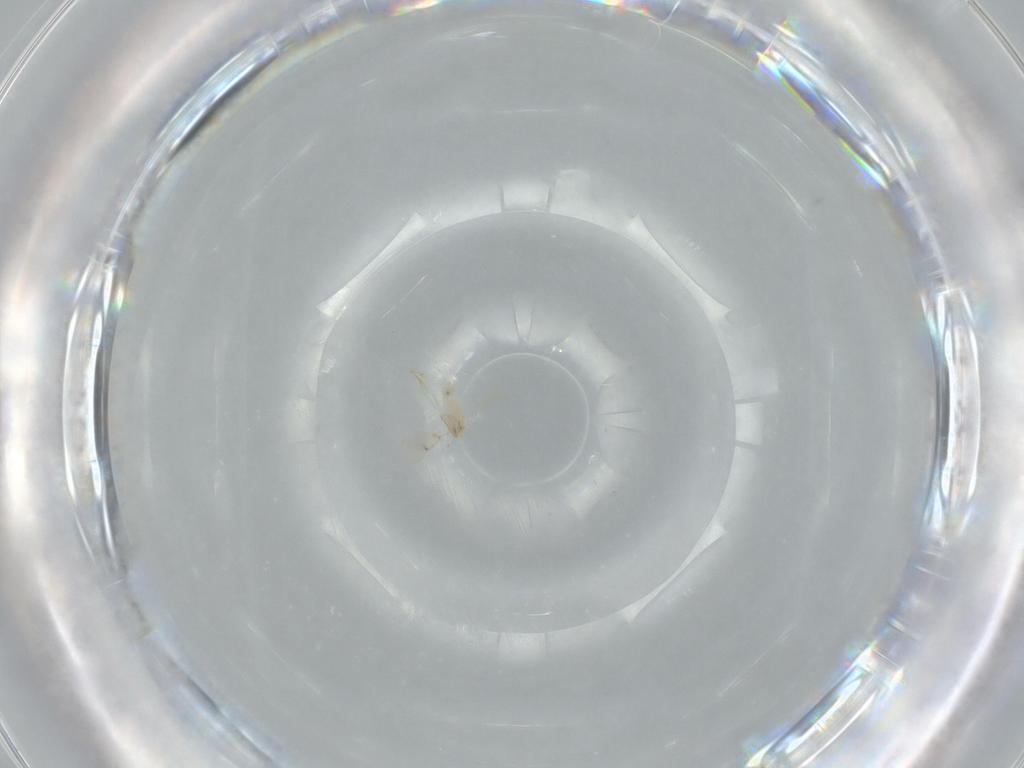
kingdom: Animalia
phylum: Arthropoda
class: Insecta
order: Hymenoptera
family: Aphelinidae
